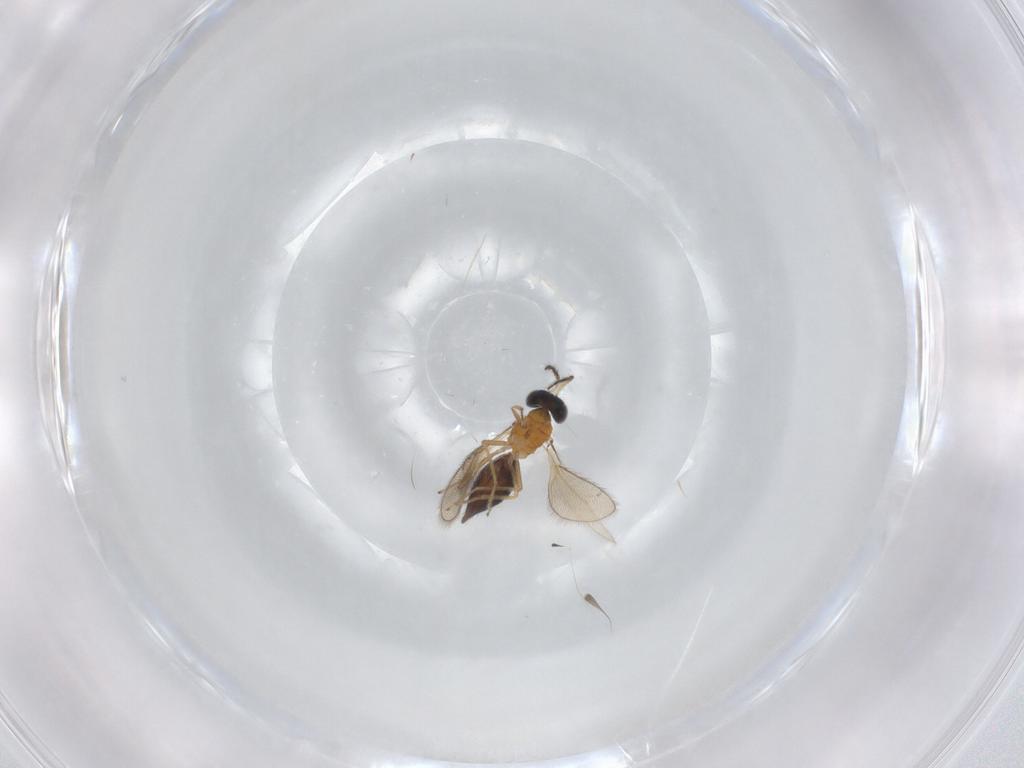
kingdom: Animalia
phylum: Arthropoda
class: Insecta
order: Hymenoptera
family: Eulophidae
